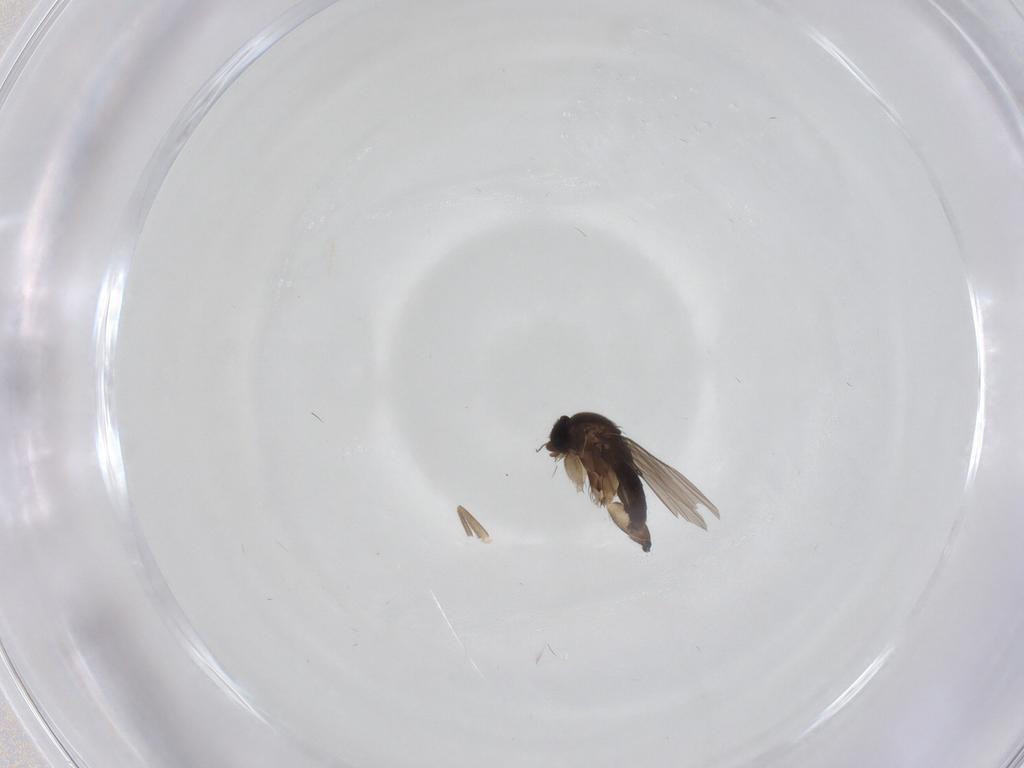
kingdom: Animalia
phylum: Arthropoda
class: Insecta
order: Diptera
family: Phoridae
